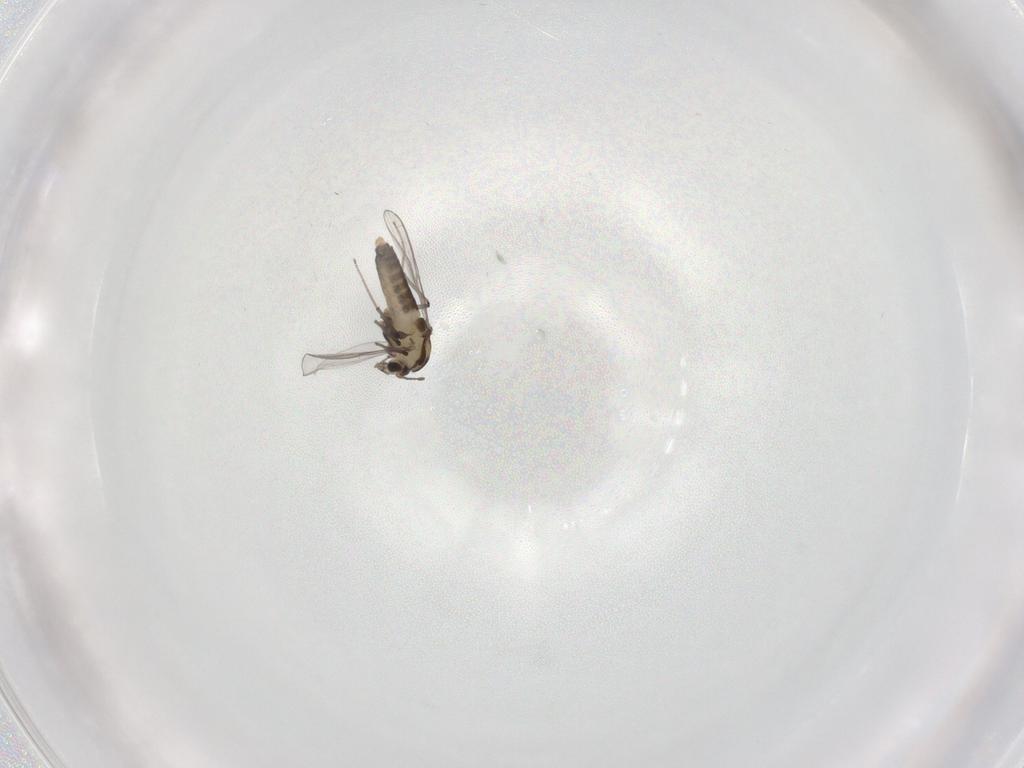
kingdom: Animalia
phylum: Arthropoda
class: Insecta
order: Diptera
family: Chironomidae
